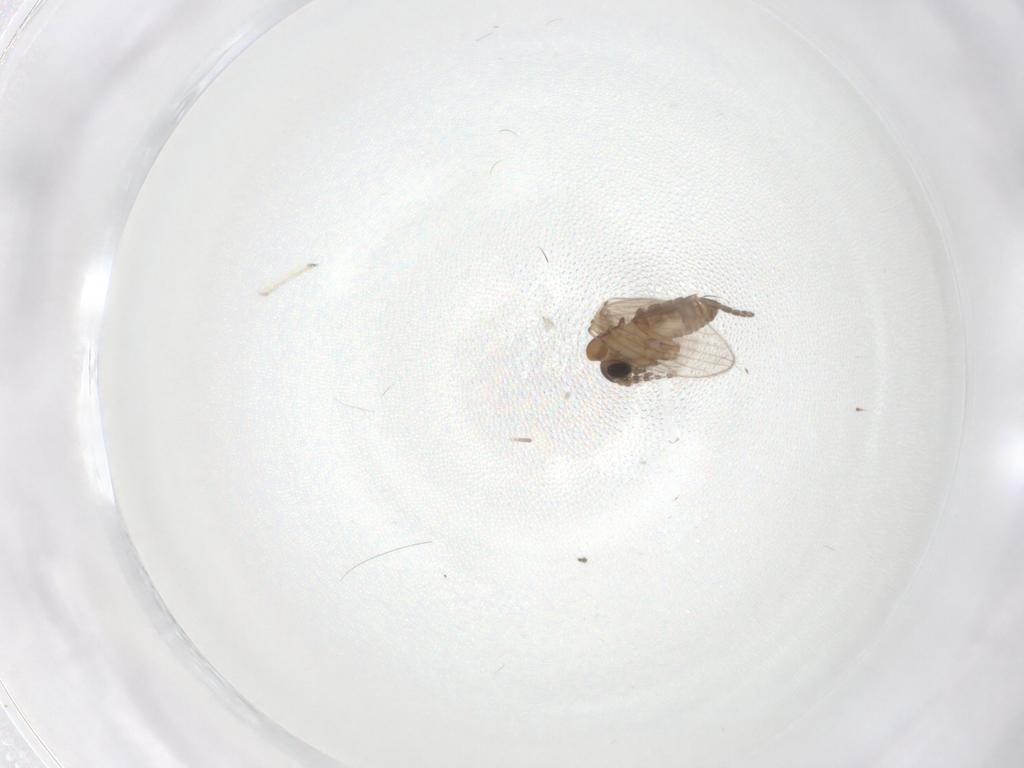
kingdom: Animalia
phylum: Arthropoda
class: Insecta
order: Diptera
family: Psychodidae
